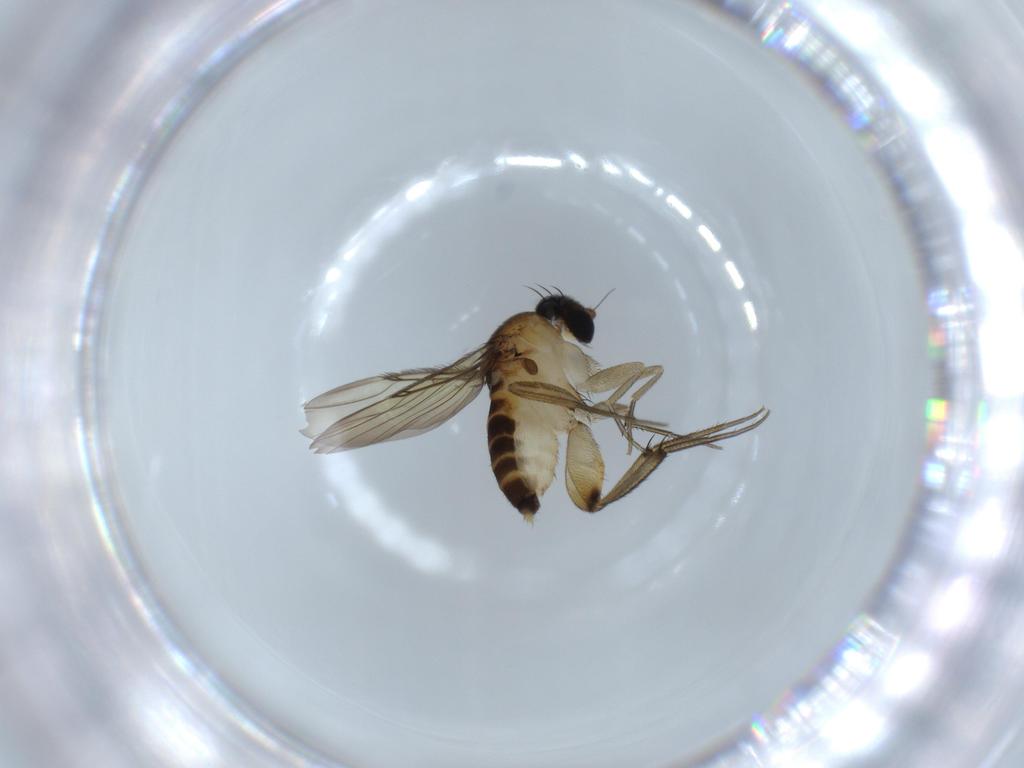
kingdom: Animalia
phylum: Arthropoda
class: Insecta
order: Diptera
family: Phoridae
